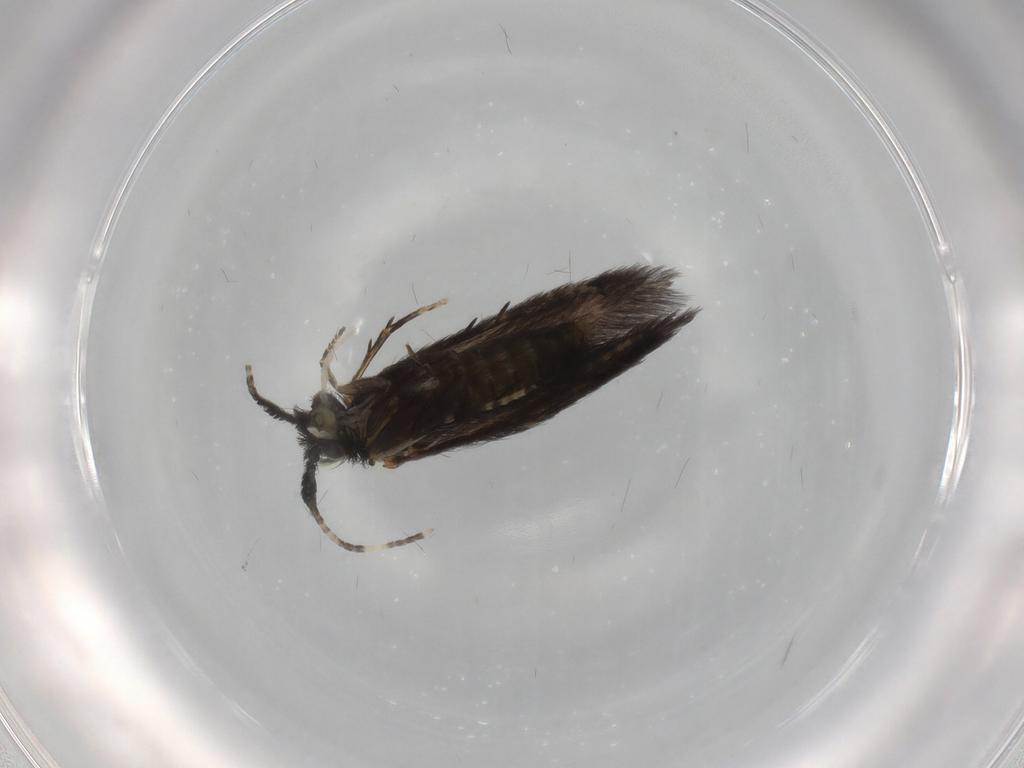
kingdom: Animalia
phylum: Arthropoda
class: Insecta
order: Trichoptera
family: Hydroptilidae
